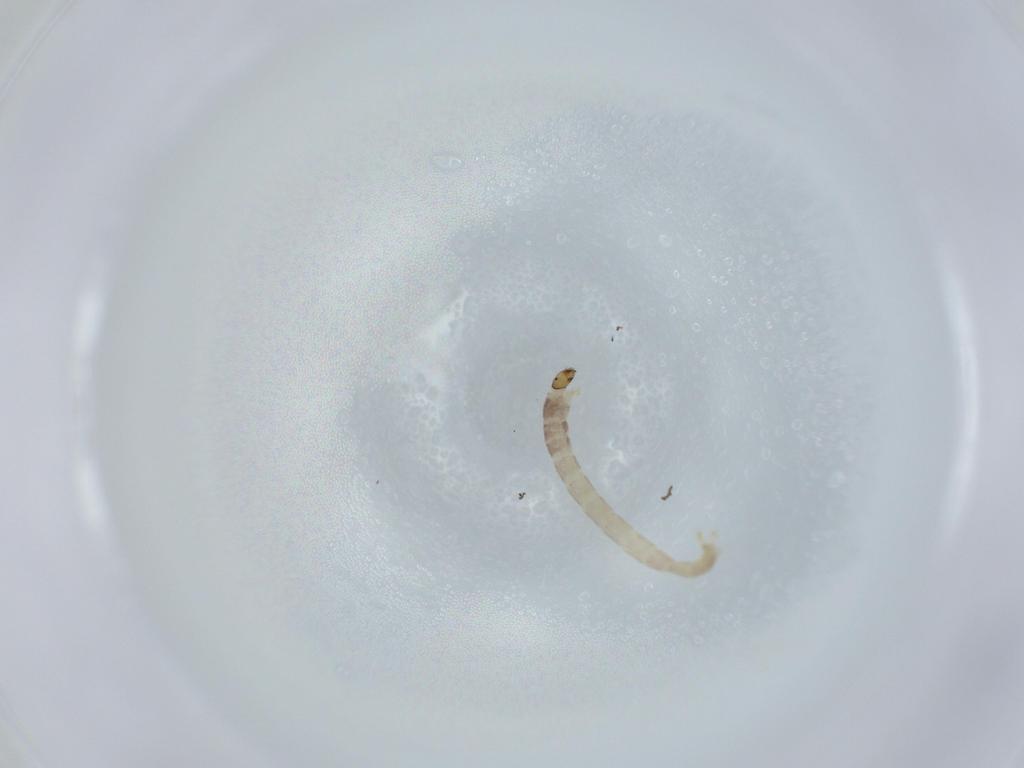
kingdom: Animalia
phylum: Arthropoda
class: Insecta
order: Diptera
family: Chironomidae
